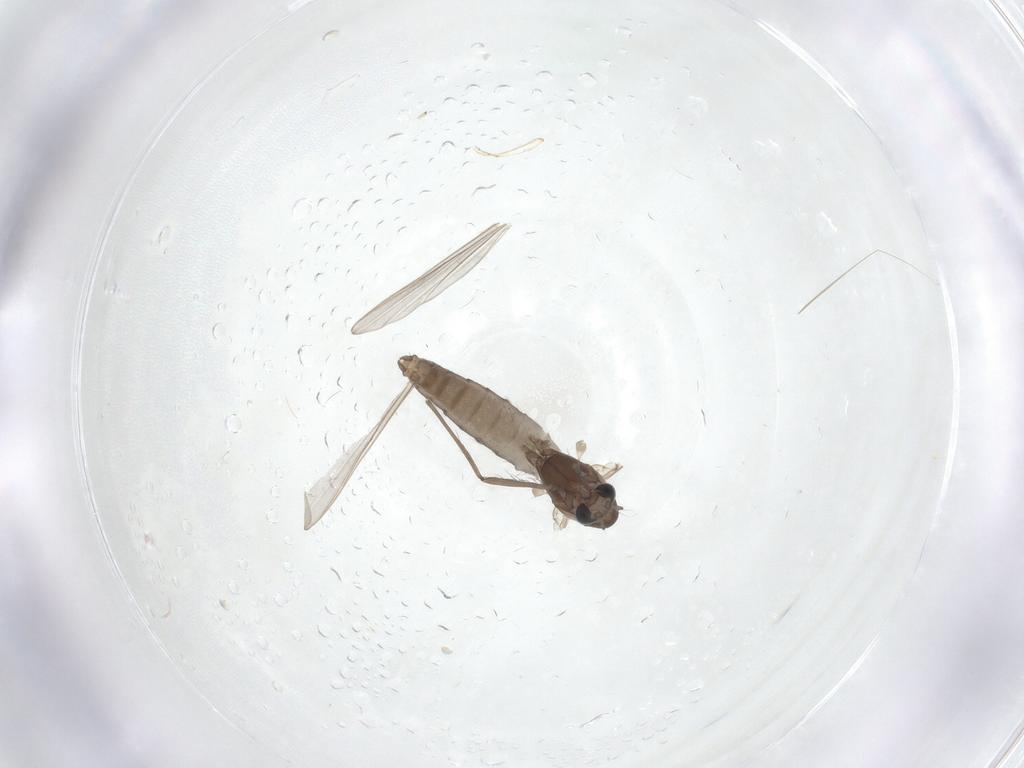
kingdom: Animalia
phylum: Arthropoda
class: Insecta
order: Diptera
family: Chironomidae
